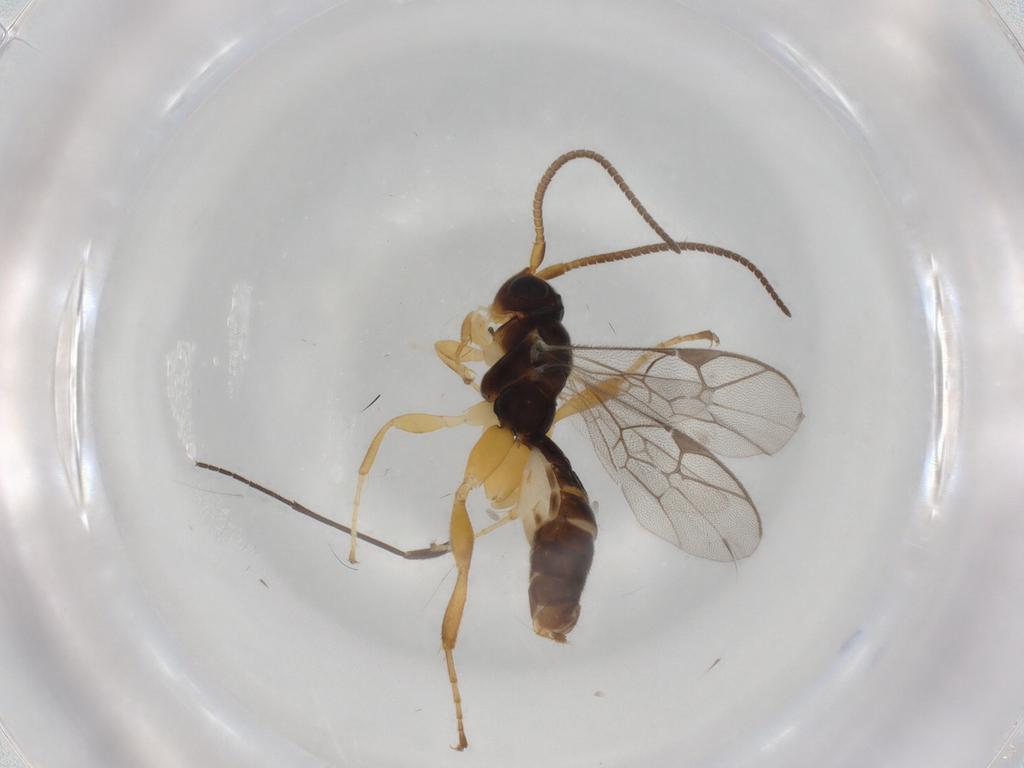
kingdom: Animalia
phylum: Arthropoda
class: Insecta
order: Hymenoptera
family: Ichneumonidae
